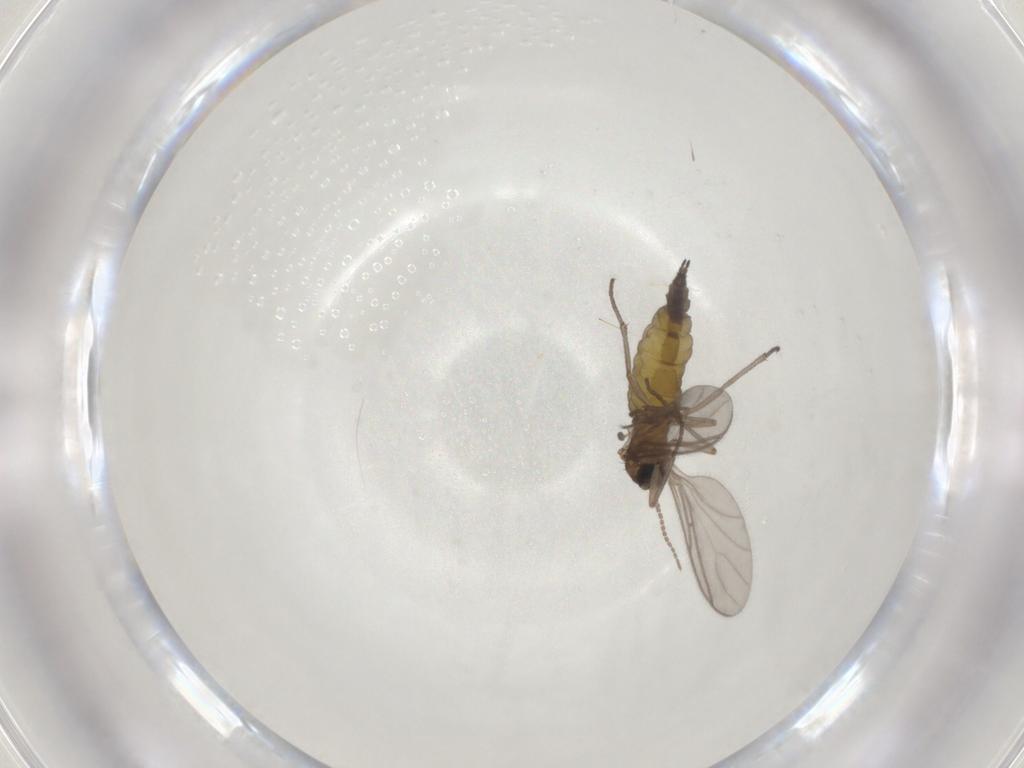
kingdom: Animalia
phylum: Arthropoda
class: Insecta
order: Diptera
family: Sciaridae
